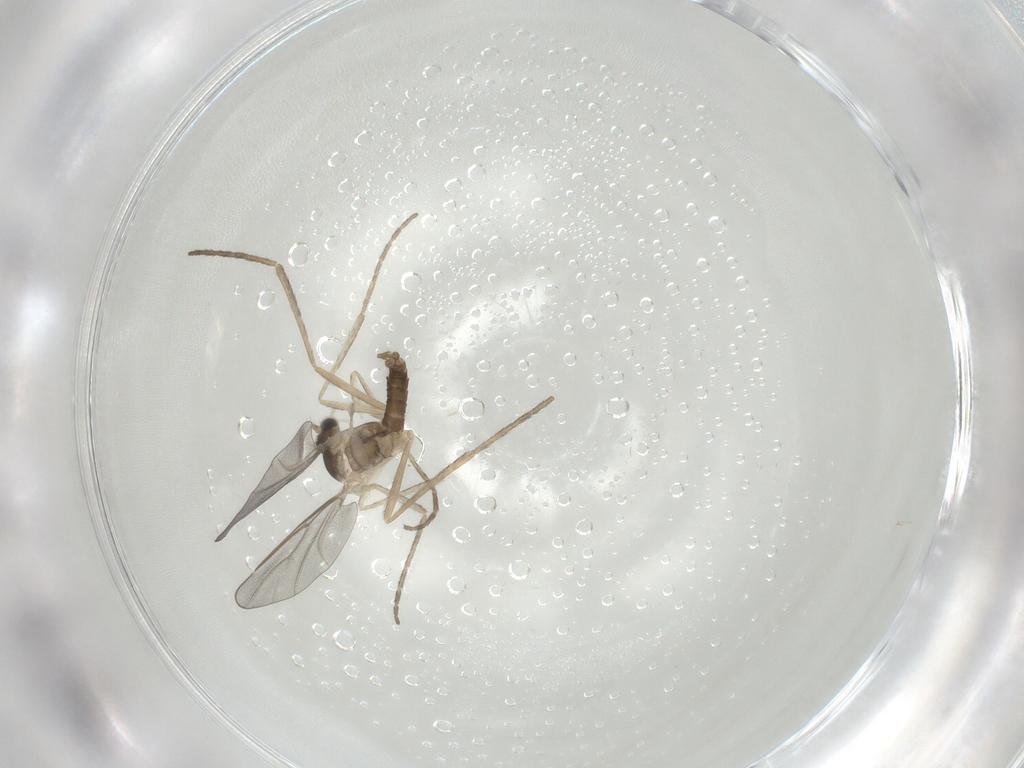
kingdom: Animalia
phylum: Arthropoda
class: Insecta
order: Diptera
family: Cecidomyiidae
